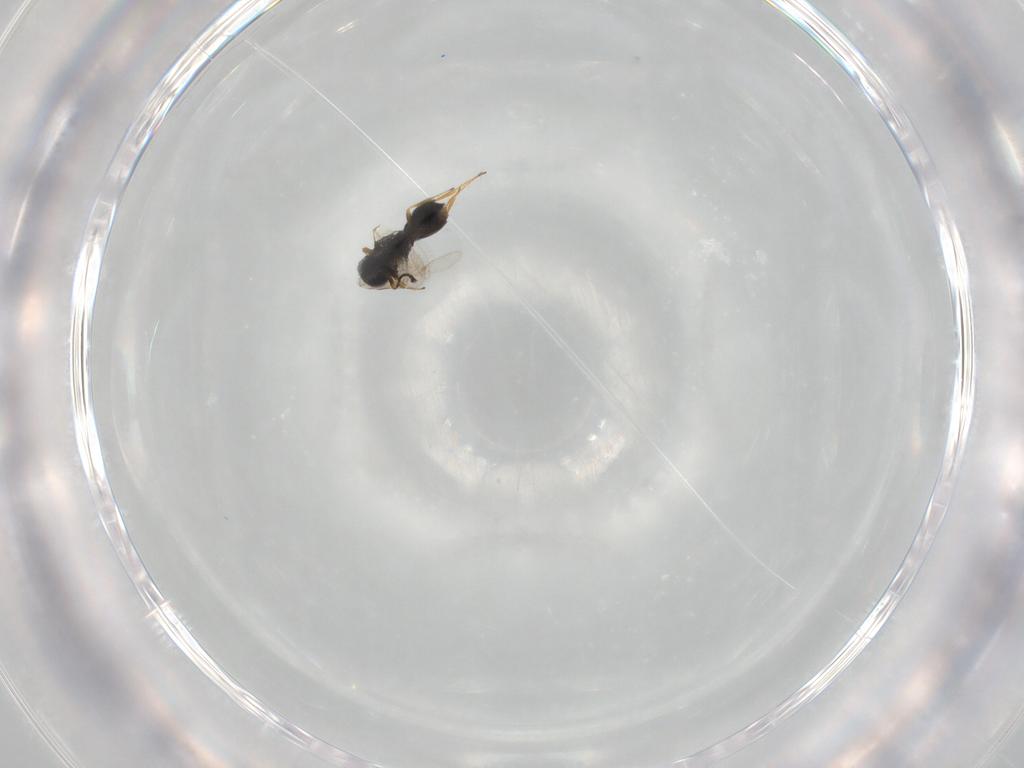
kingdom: Animalia
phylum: Arthropoda
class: Insecta
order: Hymenoptera
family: Scelionidae
